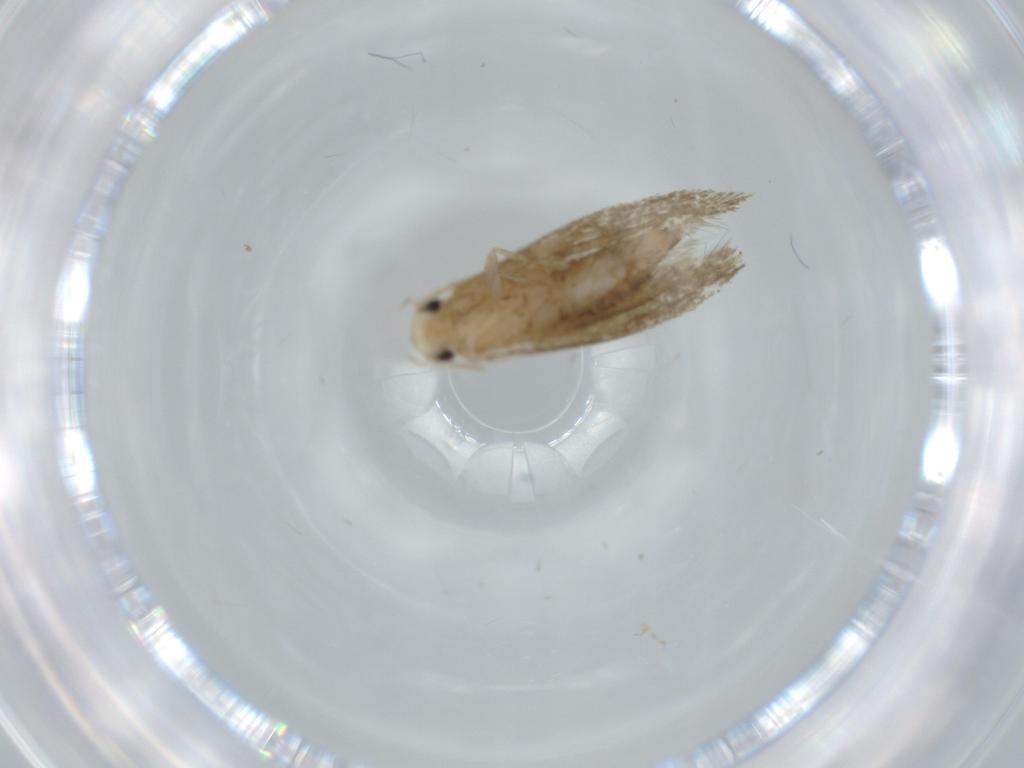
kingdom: Animalia
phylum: Arthropoda
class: Insecta
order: Lepidoptera
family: Tineidae
